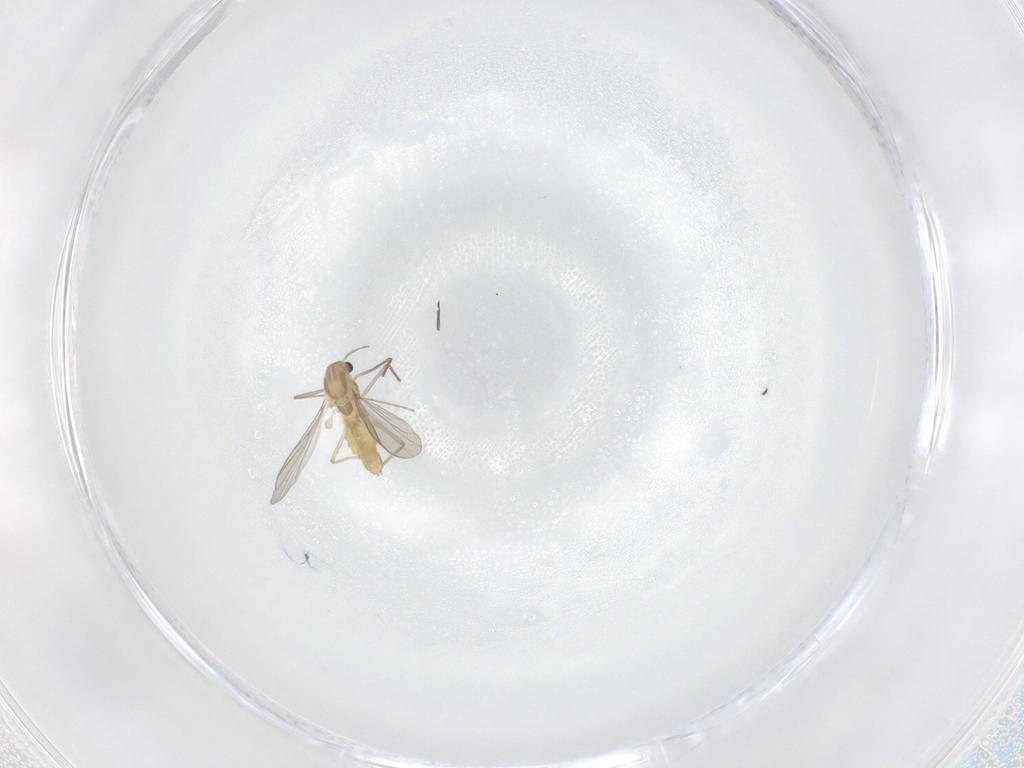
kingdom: Animalia
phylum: Arthropoda
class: Insecta
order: Diptera
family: Chironomidae
